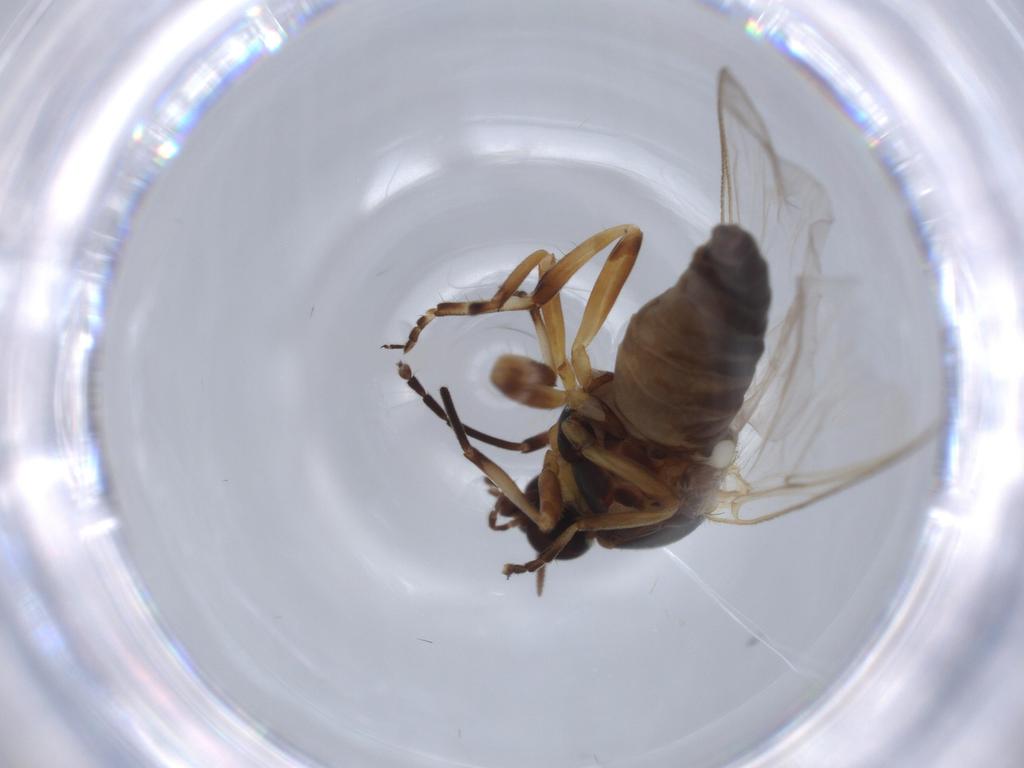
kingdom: Animalia
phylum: Arthropoda
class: Insecta
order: Diptera
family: Simuliidae
